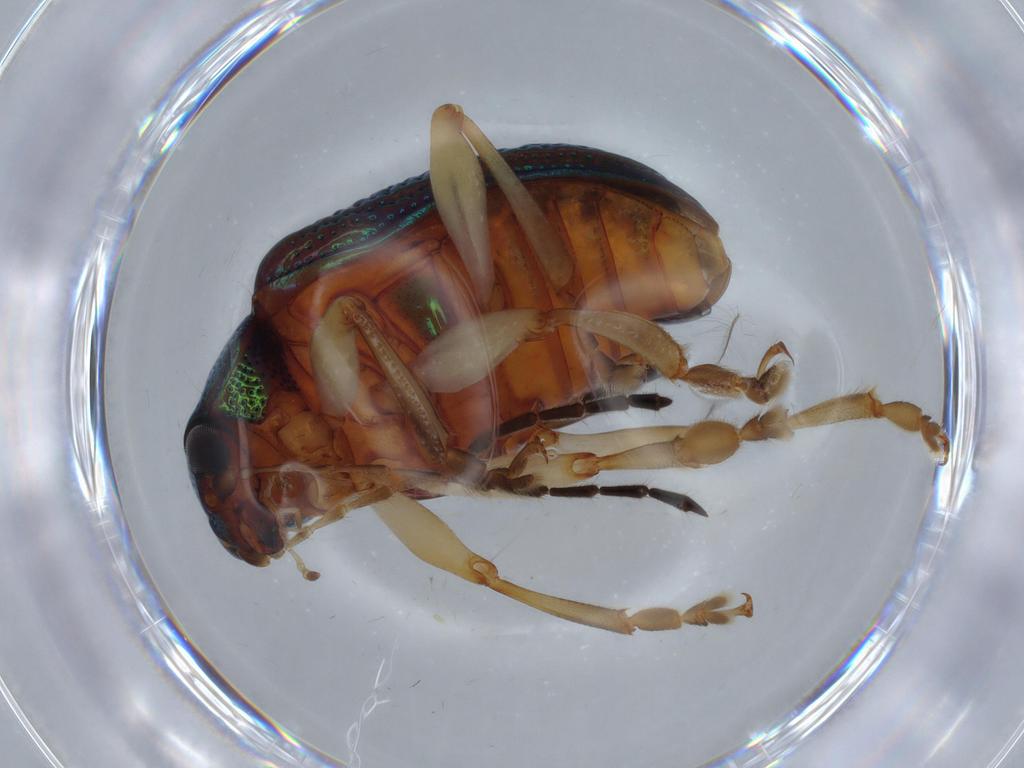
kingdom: Animalia
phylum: Arthropoda
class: Insecta
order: Coleoptera
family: Chrysomelidae
